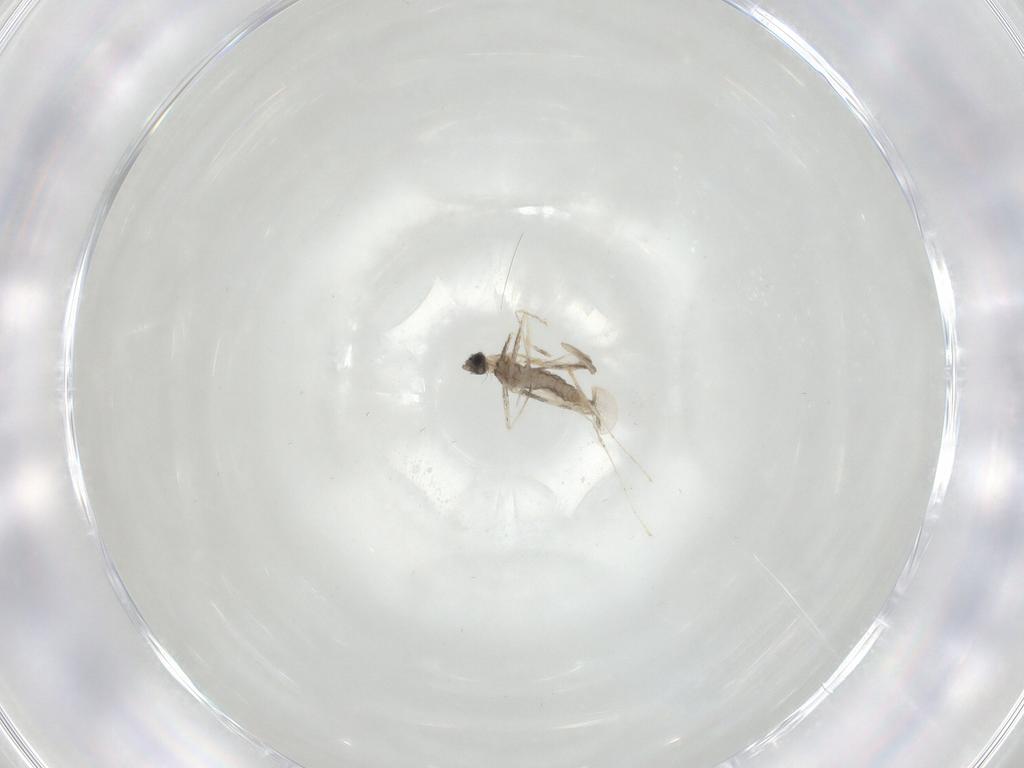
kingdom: Animalia
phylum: Arthropoda
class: Insecta
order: Diptera
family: Cecidomyiidae
